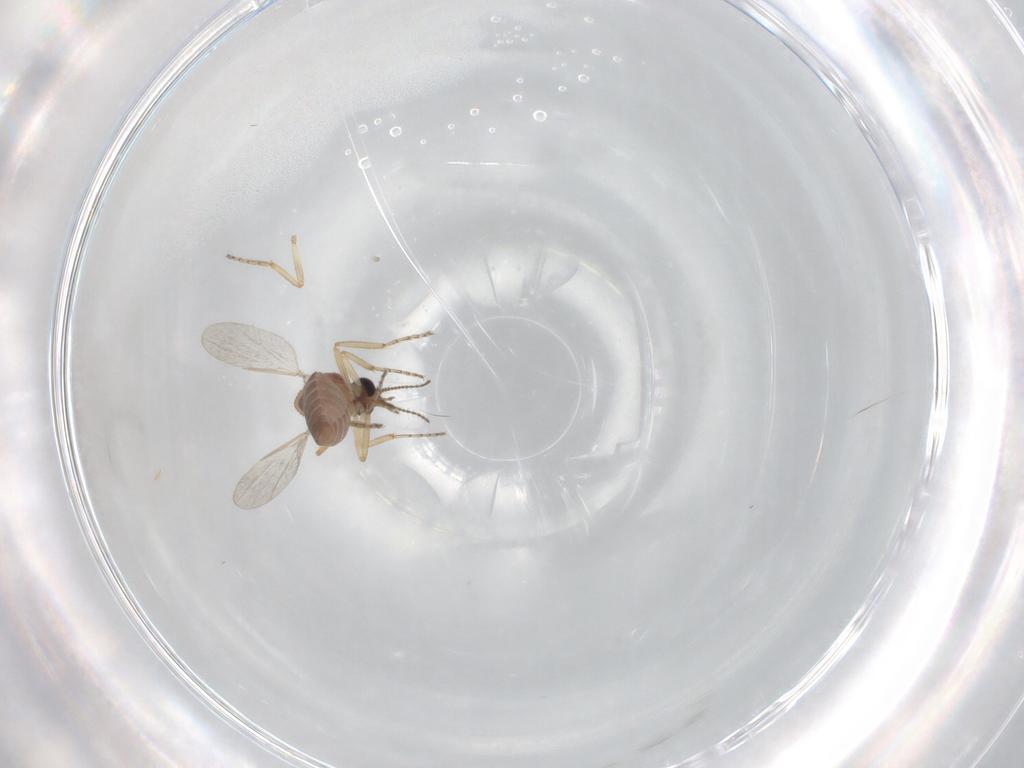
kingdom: Animalia
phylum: Arthropoda
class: Insecta
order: Diptera
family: Ceratopogonidae
